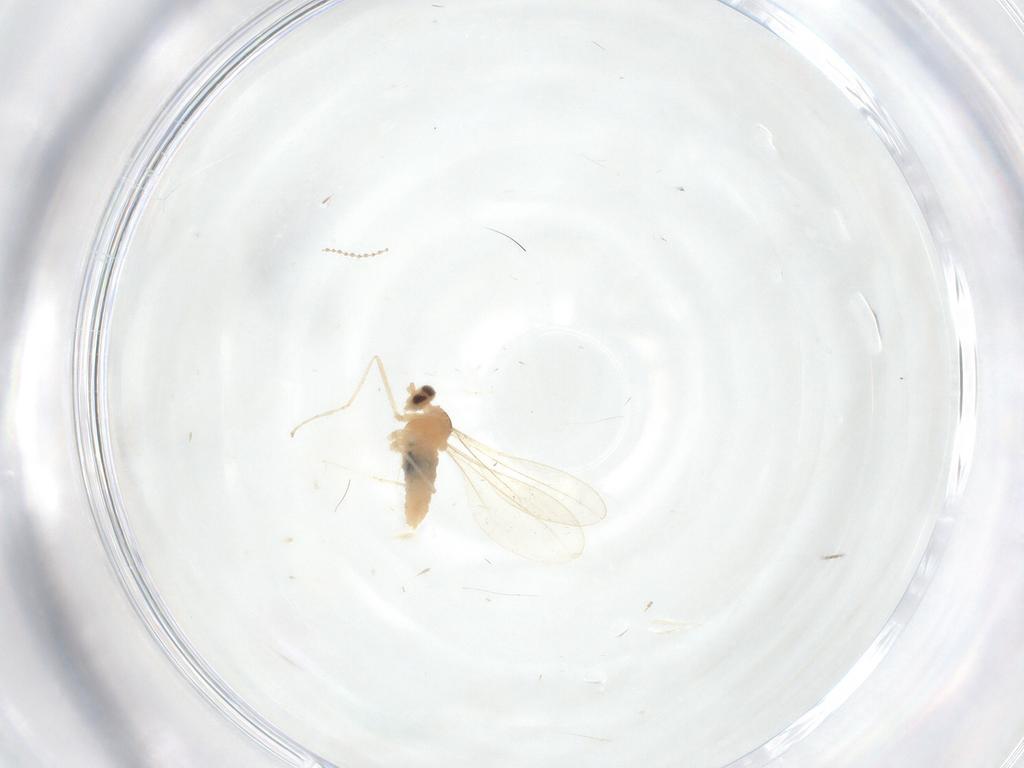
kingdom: Animalia
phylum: Arthropoda
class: Insecta
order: Diptera
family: Cecidomyiidae
